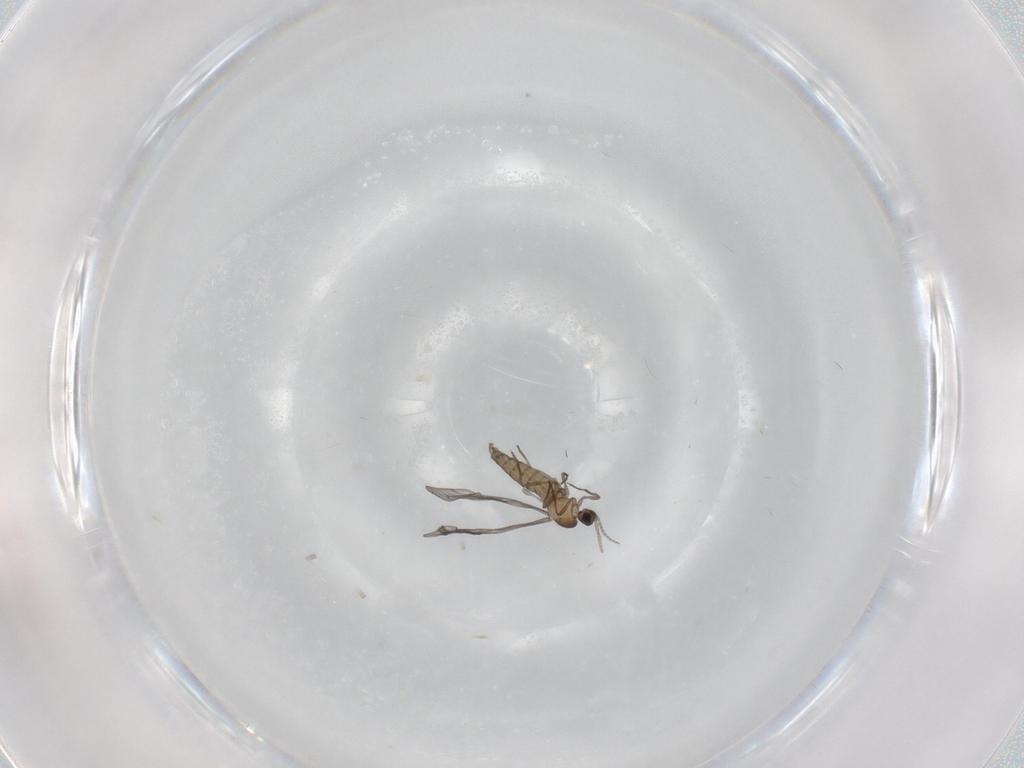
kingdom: Animalia
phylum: Arthropoda
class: Insecta
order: Diptera
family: Cecidomyiidae
